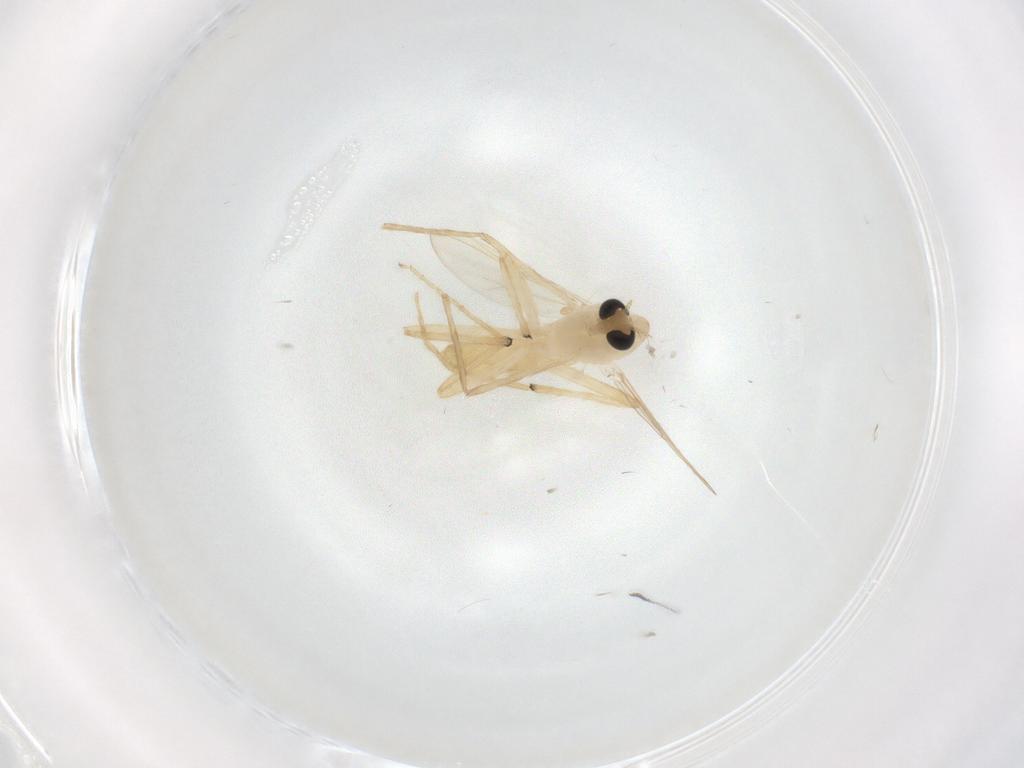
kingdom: Animalia
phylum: Arthropoda
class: Insecta
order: Diptera
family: Chironomidae
